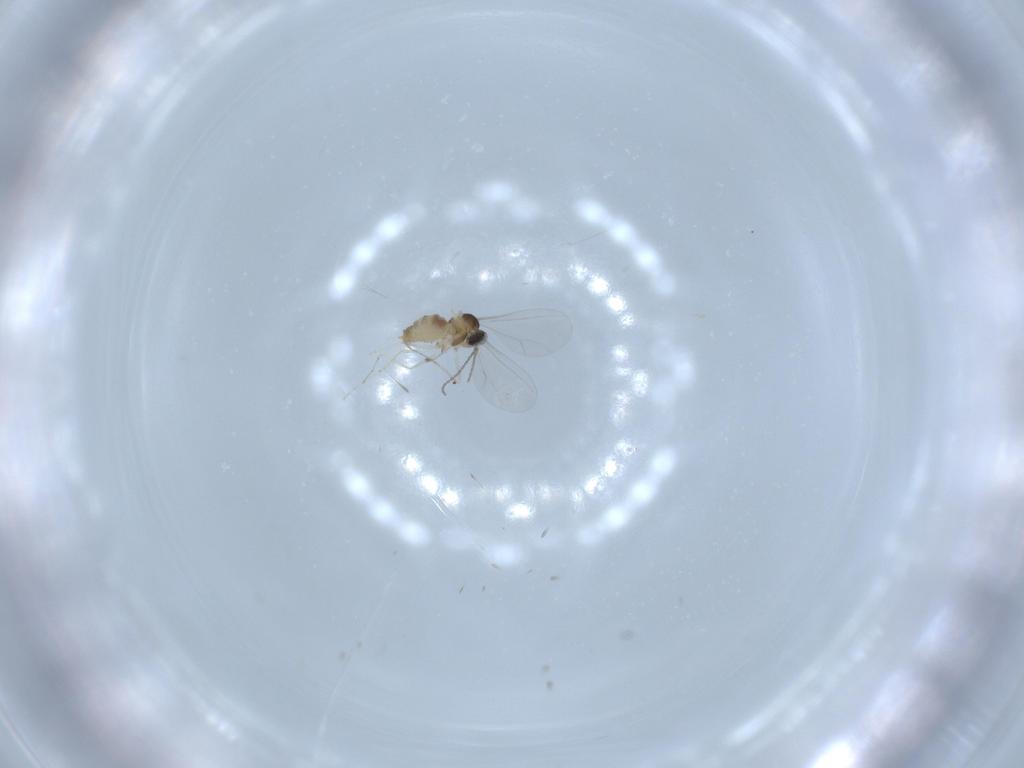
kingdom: Animalia
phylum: Arthropoda
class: Insecta
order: Diptera
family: Cecidomyiidae
